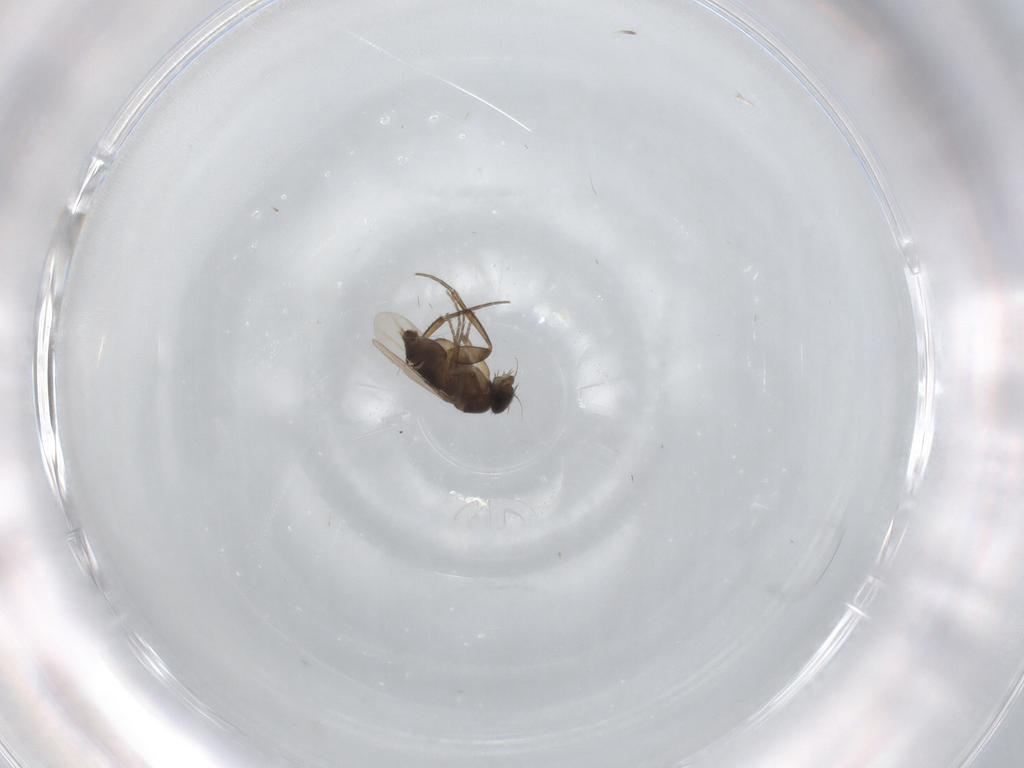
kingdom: Animalia
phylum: Arthropoda
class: Insecta
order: Diptera
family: Phoridae
